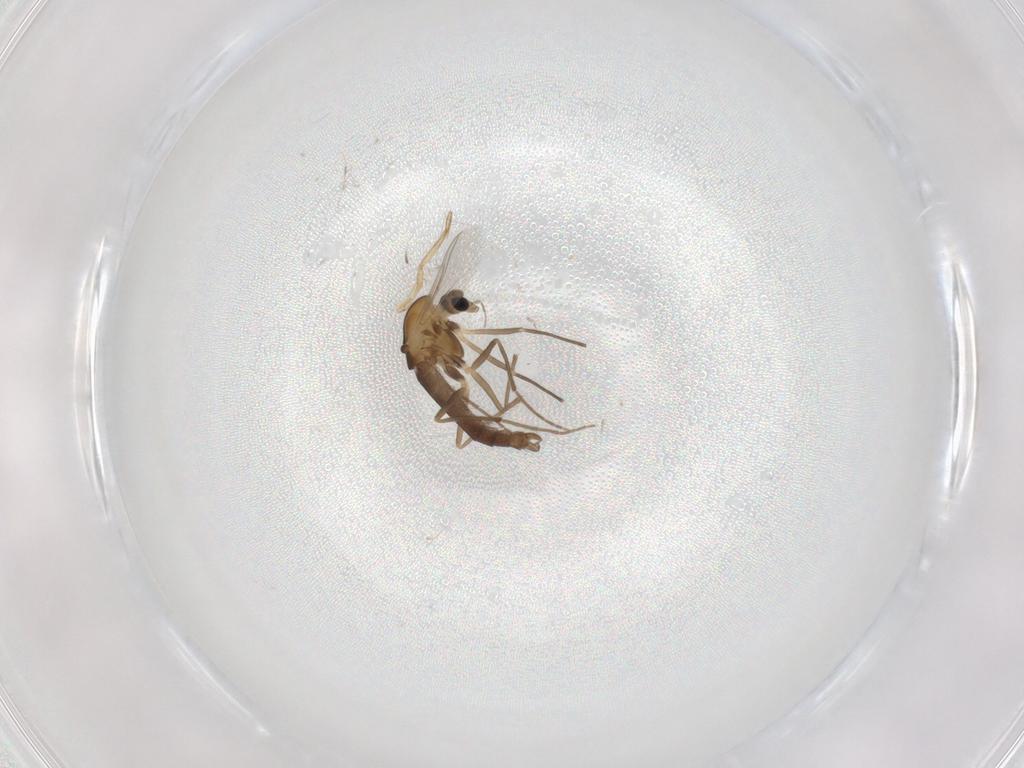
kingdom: Animalia
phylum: Arthropoda
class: Insecta
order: Diptera
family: Chironomidae
